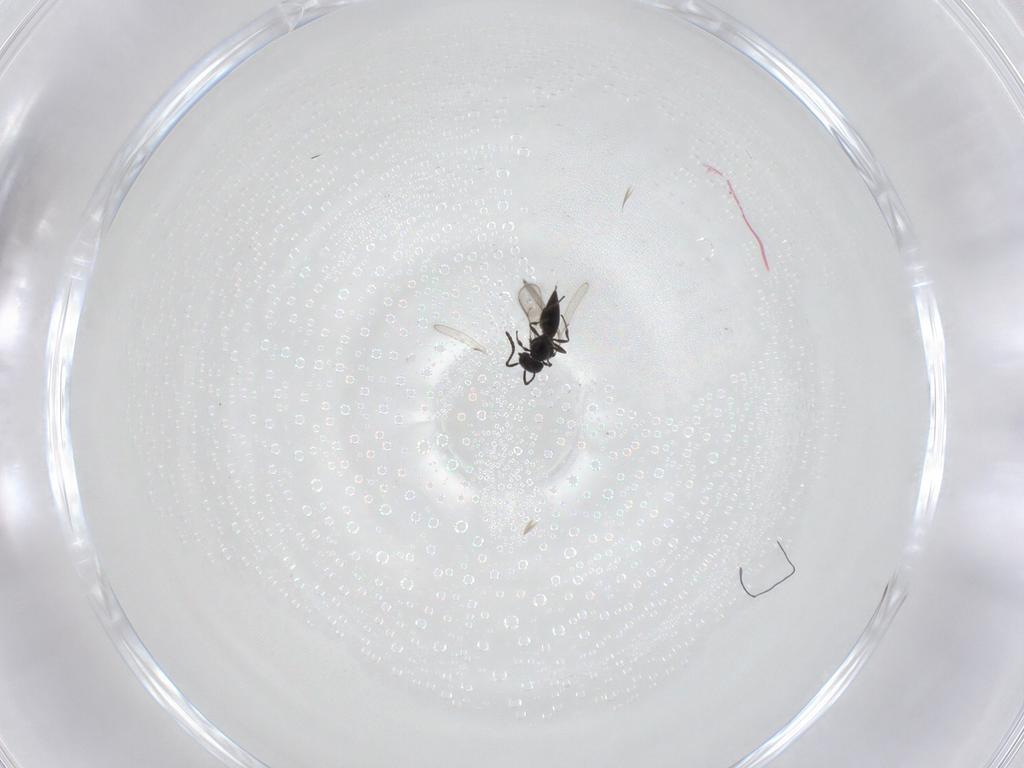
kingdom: Animalia
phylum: Arthropoda
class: Insecta
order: Hymenoptera
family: Scelionidae
